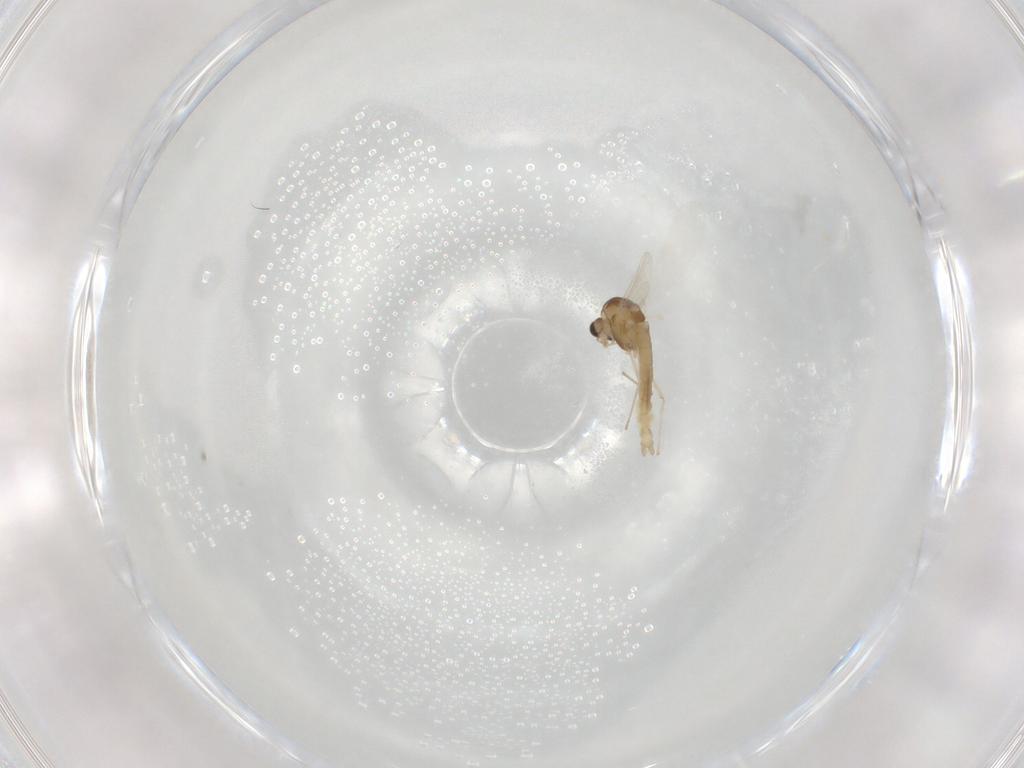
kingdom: Animalia
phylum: Arthropoda
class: Insecta
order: Diptera
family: Chironomidae
